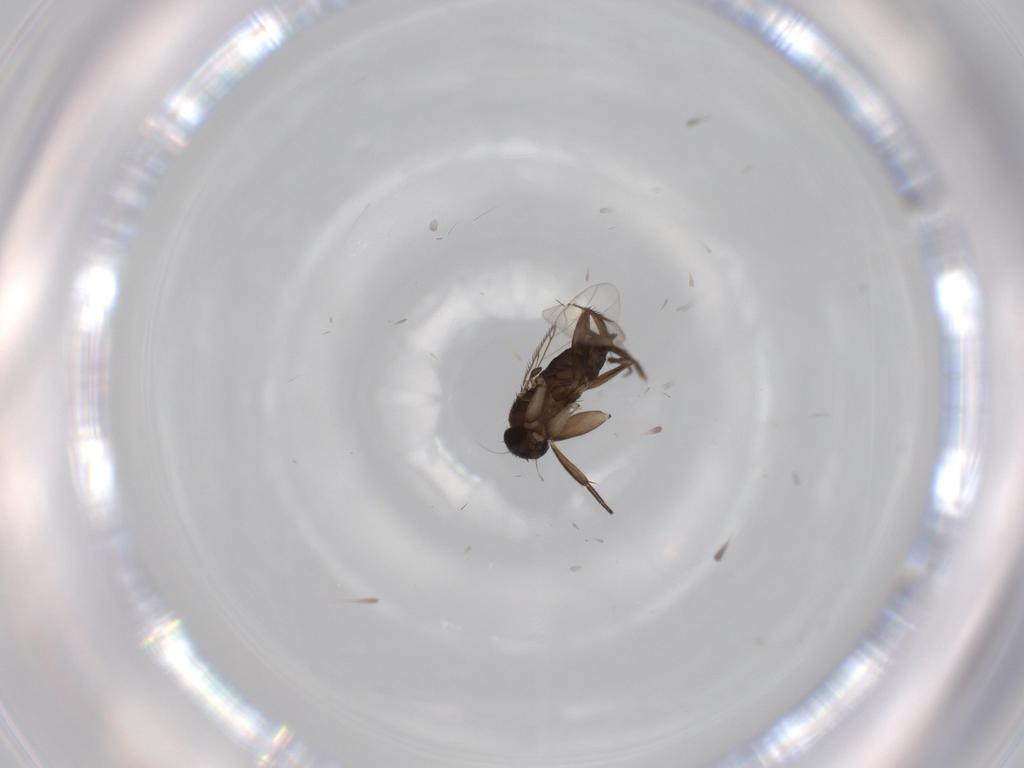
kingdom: Animalia
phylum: Arthropoda
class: Insecta
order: Diptera
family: Phoridae
